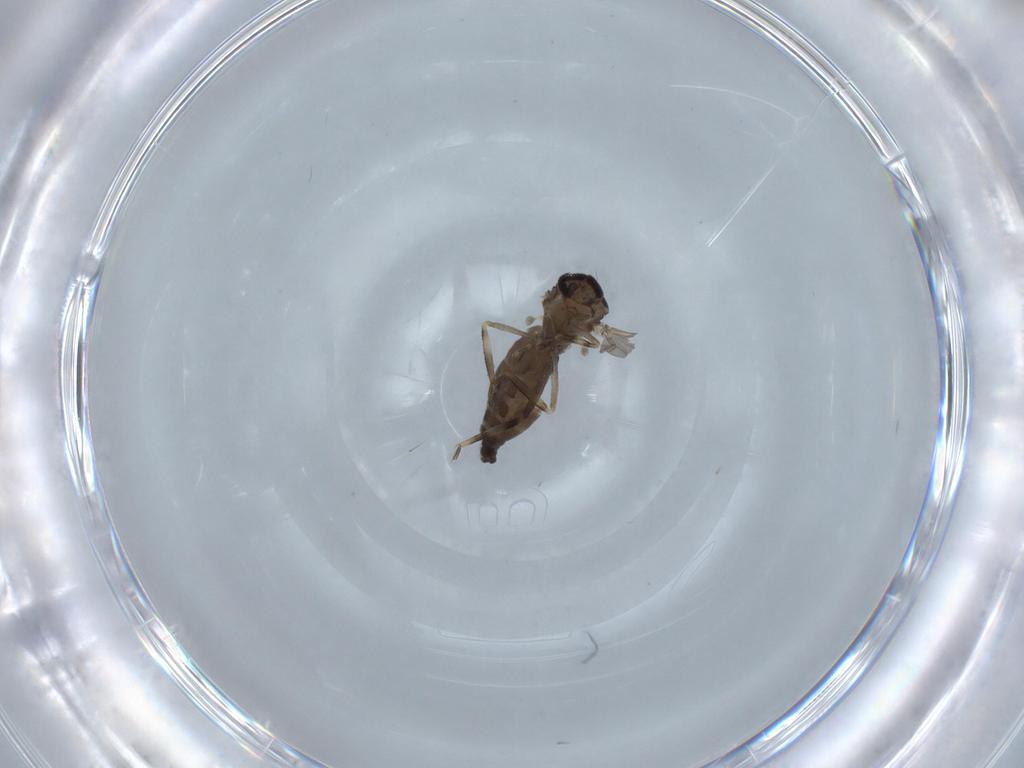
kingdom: Animalia
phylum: Arthropoda
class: Insecta
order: Diptera
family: Ceratopogonidae
